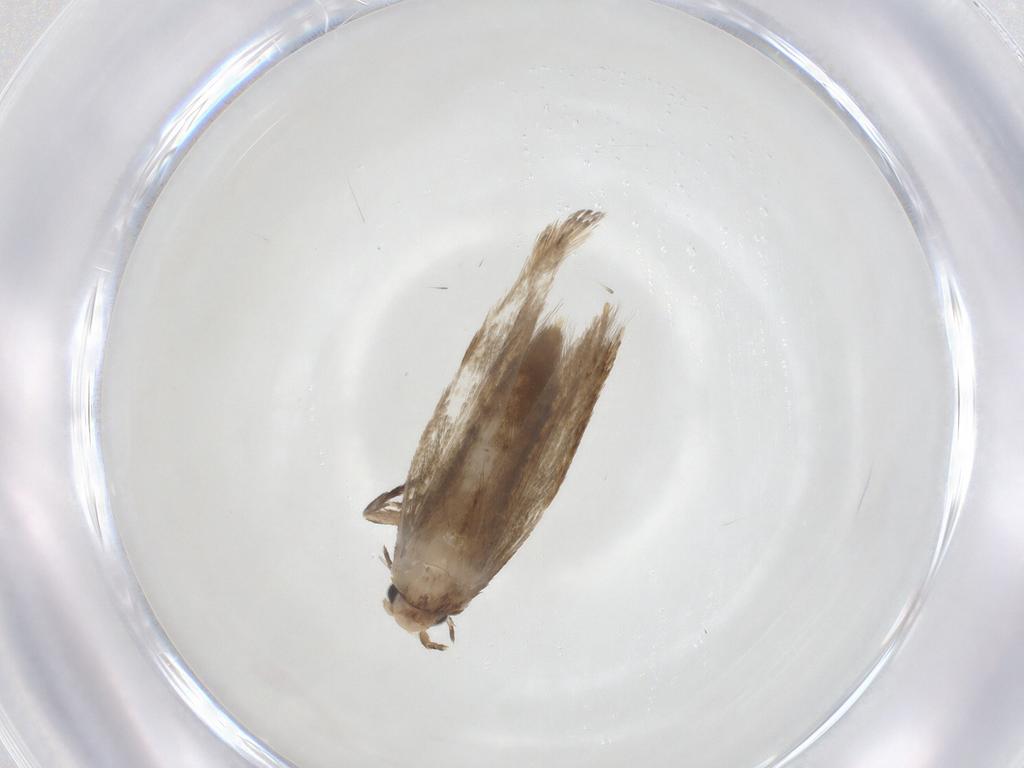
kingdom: Animalia
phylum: Arthropoda
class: Insecta
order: Lepidoptera
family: Tineidae
